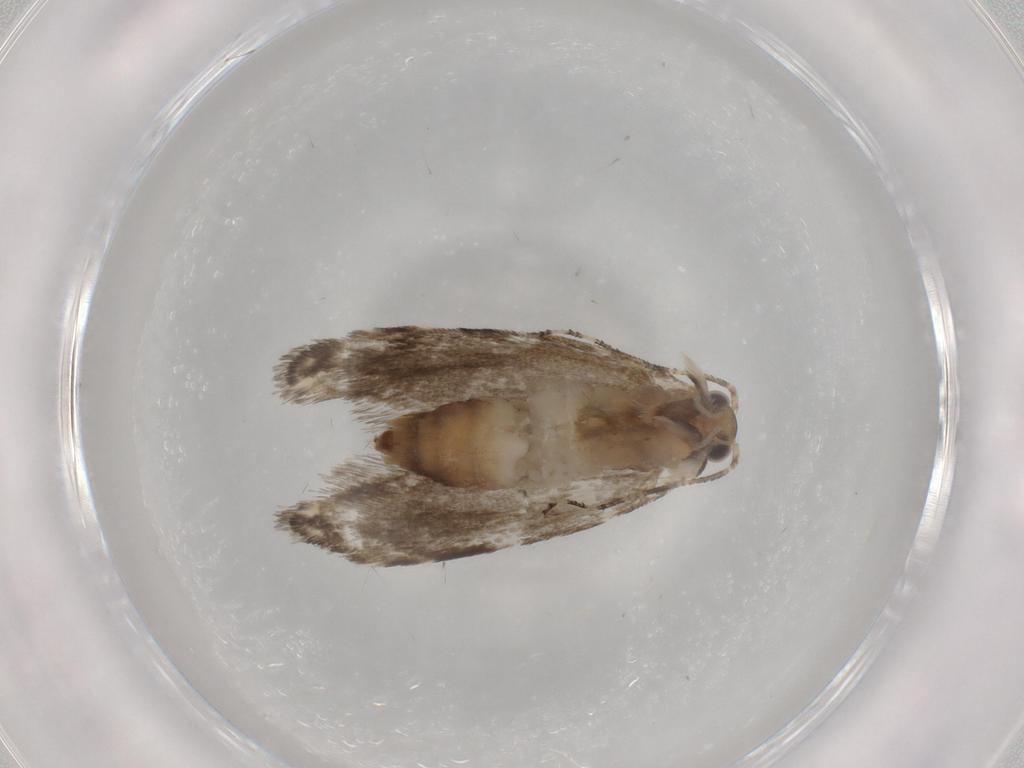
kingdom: Animalia
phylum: Arthropoda
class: Insecta
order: Lepidoptera
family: Tineidae
